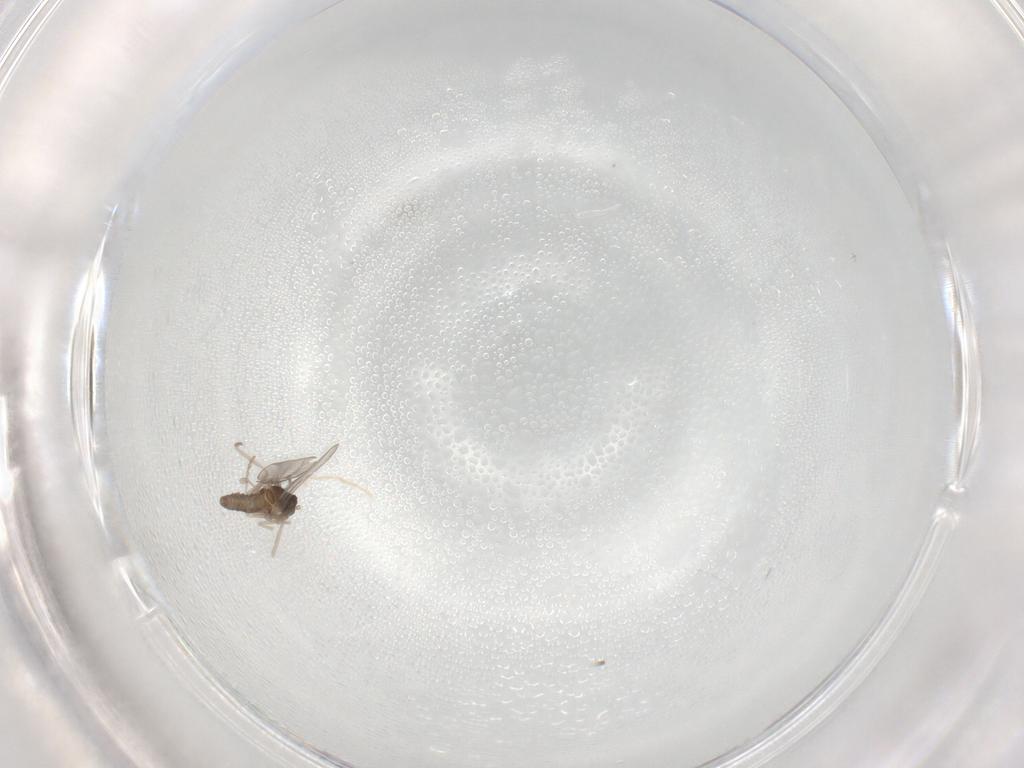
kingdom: Animalia
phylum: Arthropoda
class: Insecta
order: Diptera
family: Cecidomyiidae
